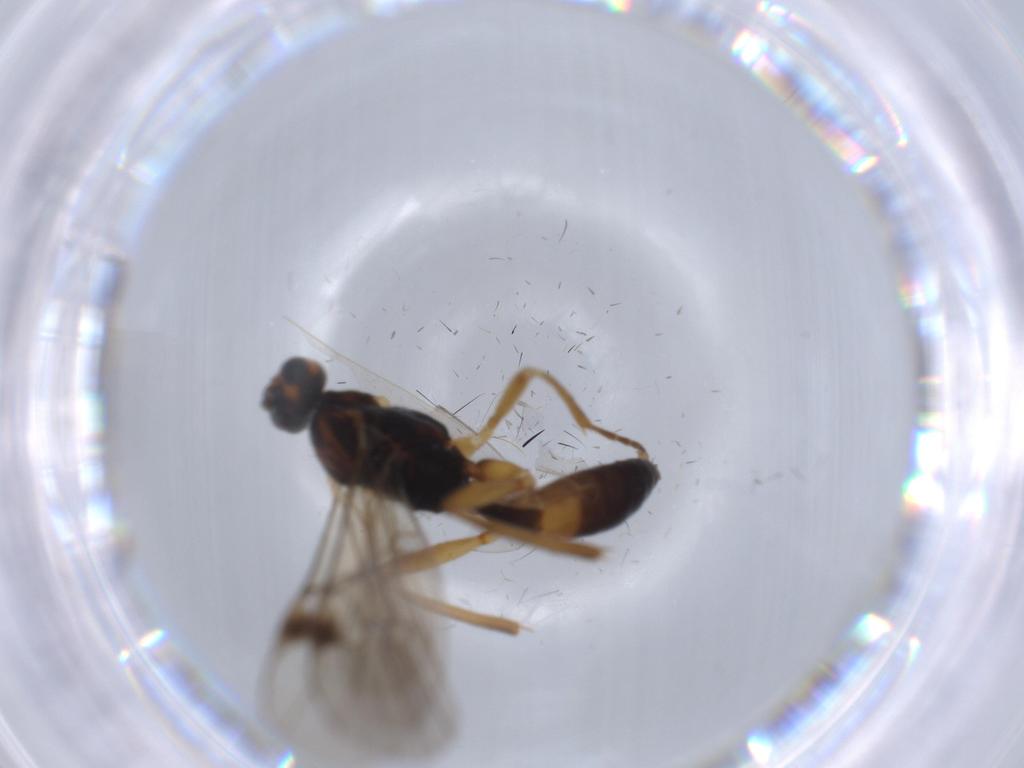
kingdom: Animalia
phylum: Arthropoda
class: Insecta
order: Hymenoptera
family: Braconidae
